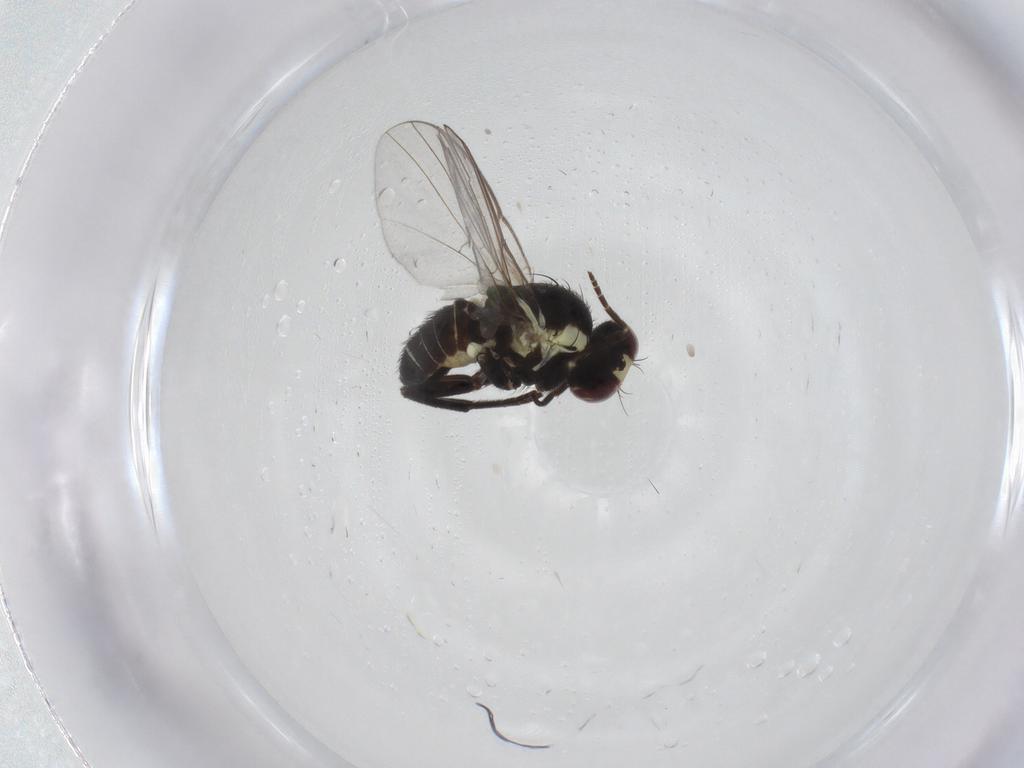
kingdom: Animalia
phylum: Arthropoda
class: Insecta
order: Diptera
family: Agromyzidae
